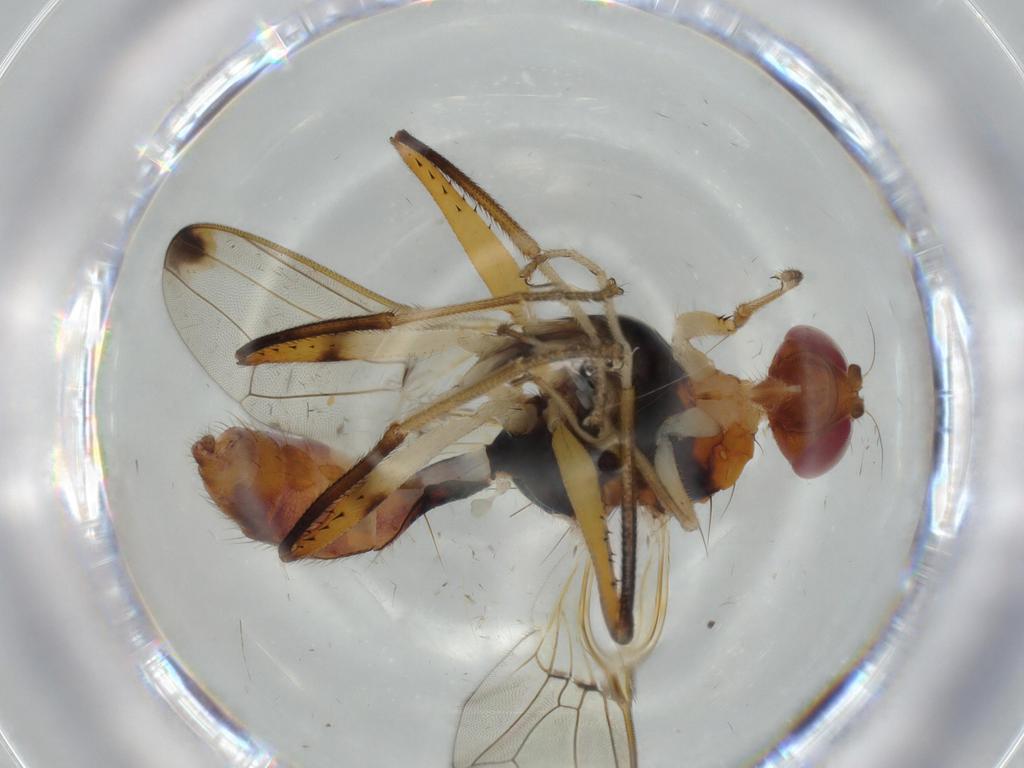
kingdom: Animalia
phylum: Arthropoda
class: Insecta
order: Diptera
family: Richardiidae
